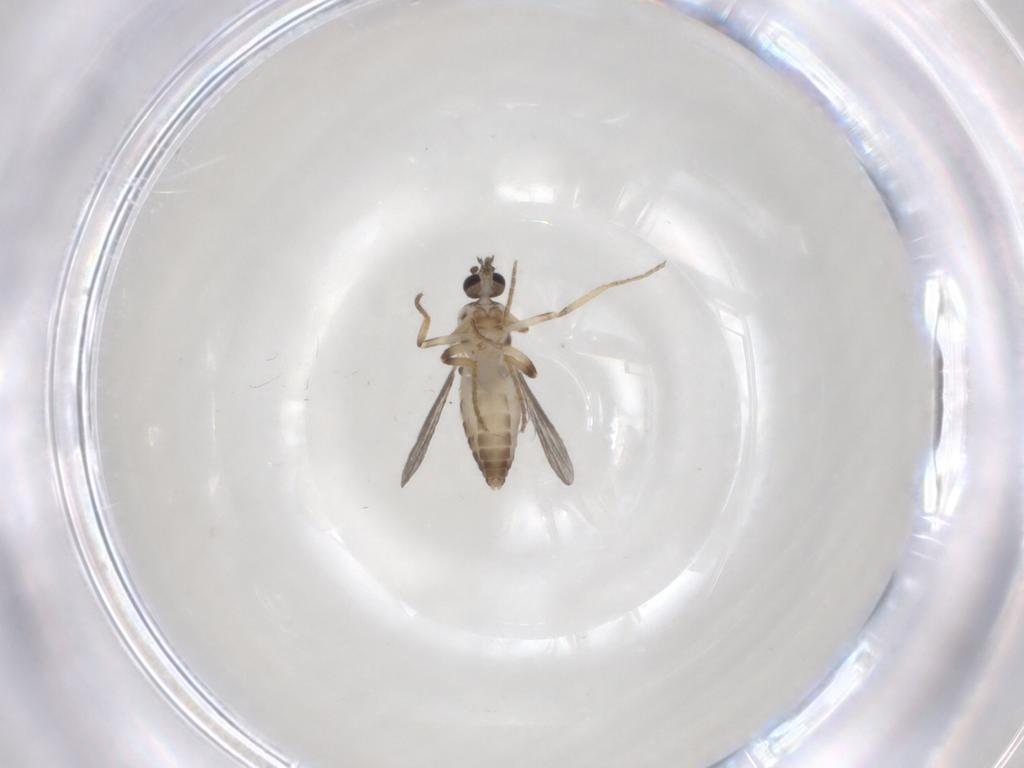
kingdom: Animalia
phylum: Arthropoda
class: Insecta
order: Diptera
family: Ceratopogonidae
